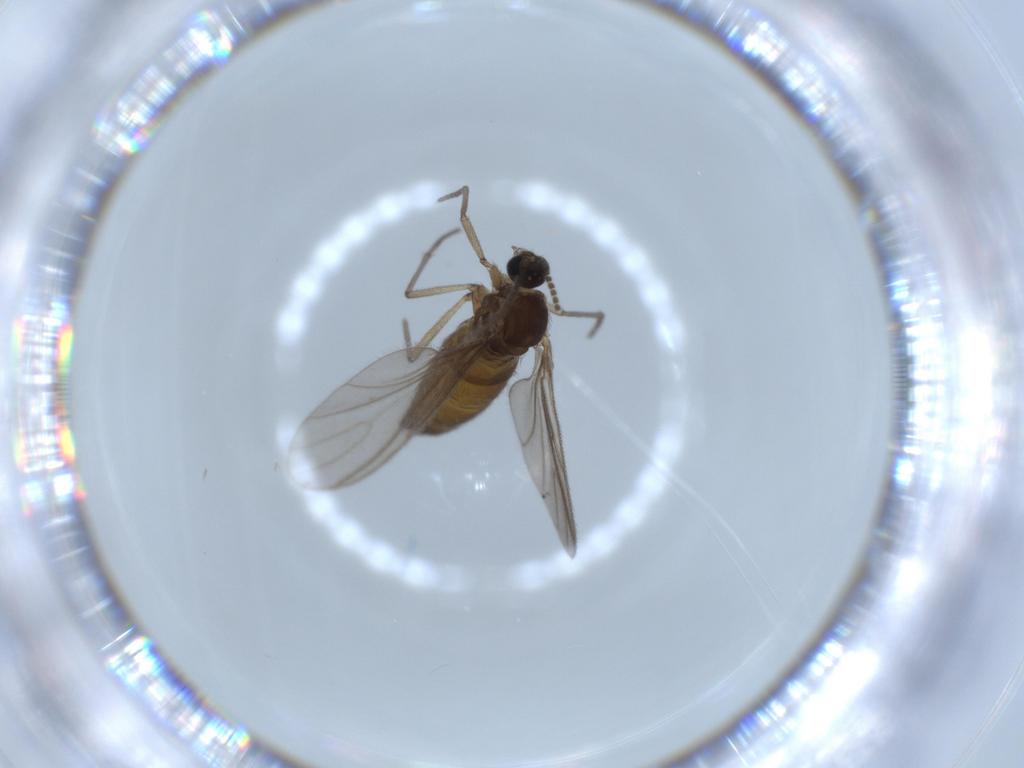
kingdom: Animalia
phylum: Arthropoda
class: Insecta
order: Diptera
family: Sciaridae
